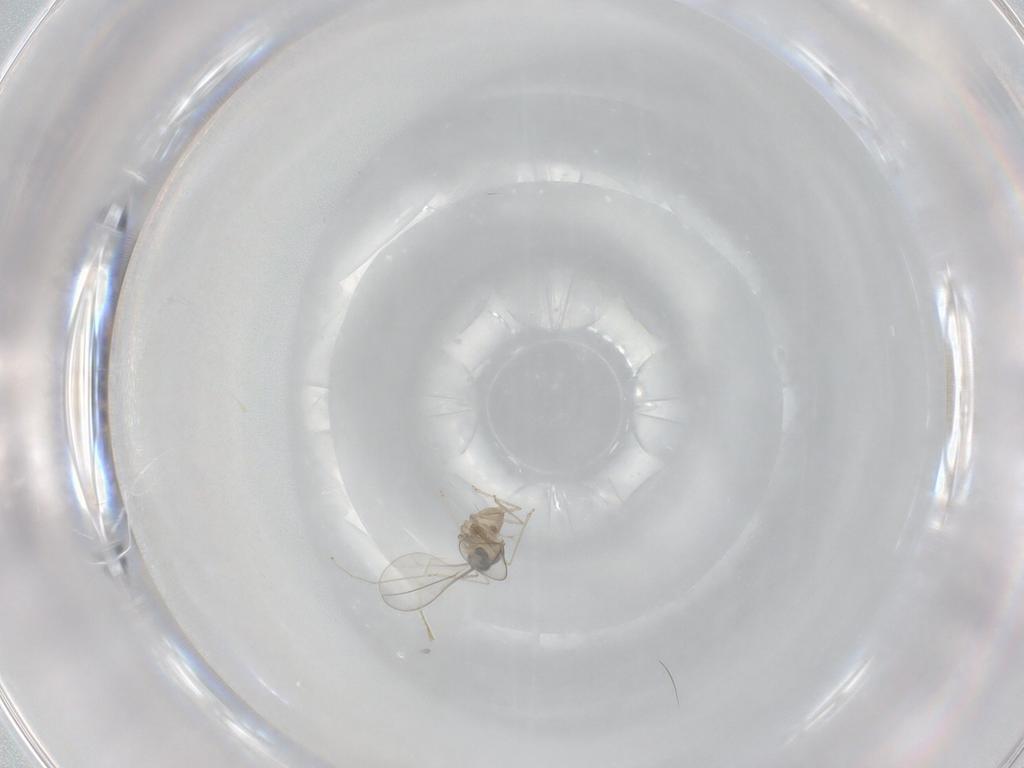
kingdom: Animalia
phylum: Arthropoda
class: Insecta
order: Diptera
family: Cecidomyiidae
